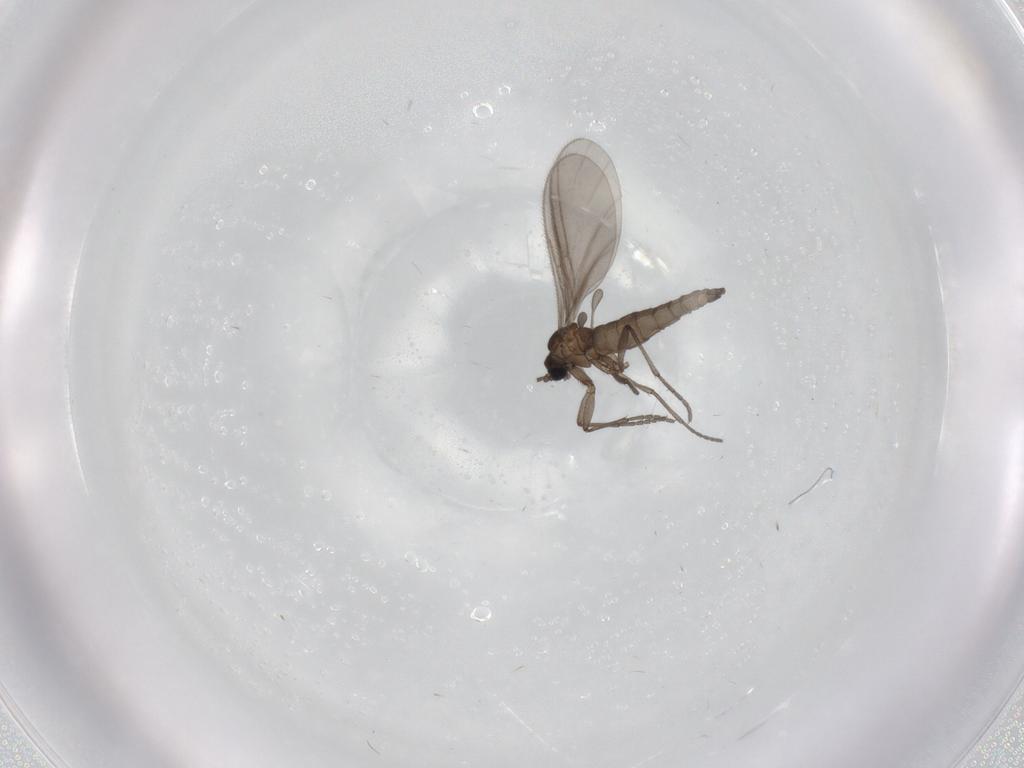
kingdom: Animalia
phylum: Arthropoda
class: Insecta
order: Diptera
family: Sciaridae
